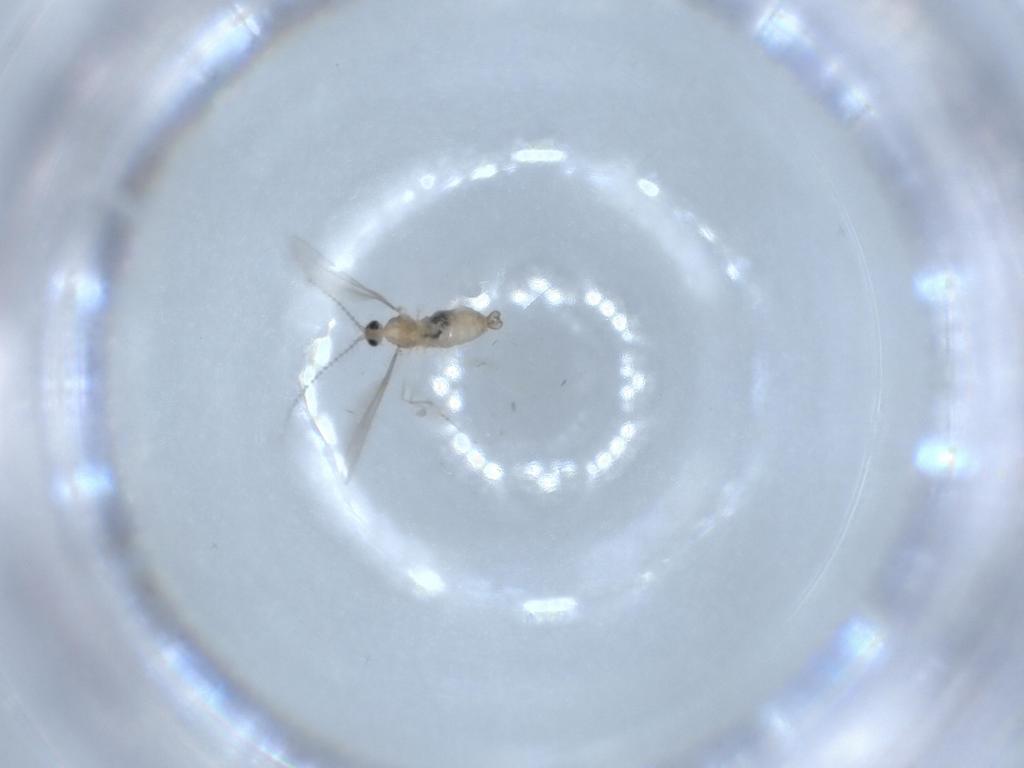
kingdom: Animalia
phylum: Arthropoda
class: Insecta
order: Diptera
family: Cecidomyiidae
